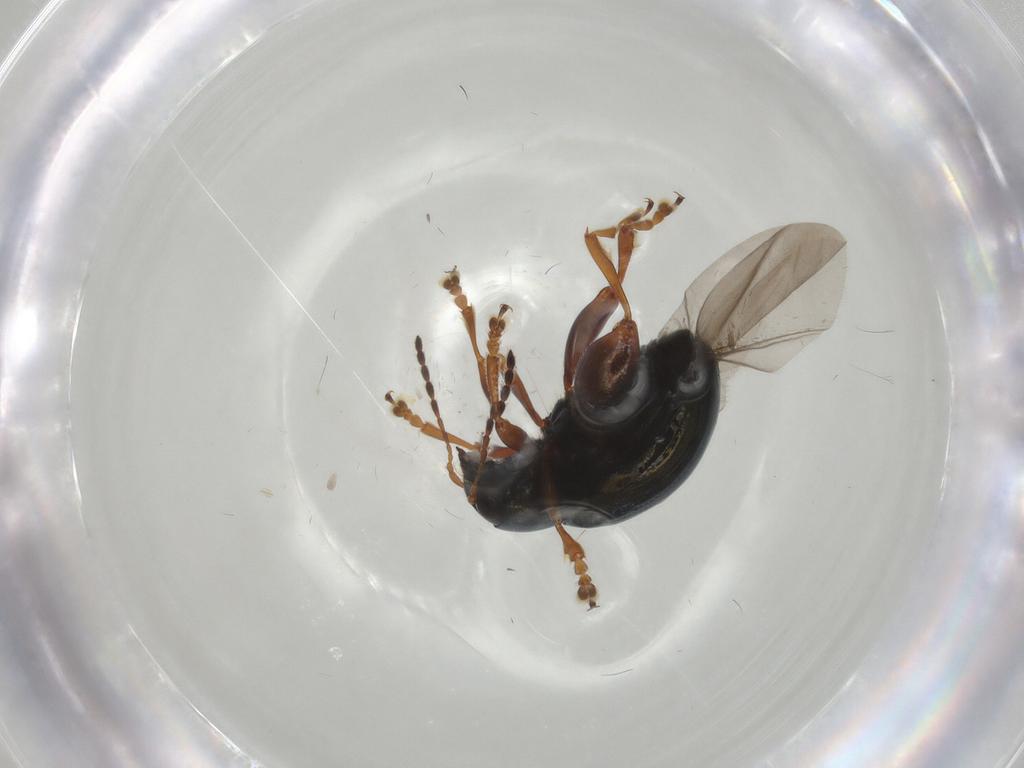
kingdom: Animalia
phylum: Arthropoda
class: Insecta
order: Coleoptera
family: Chrysomelidae
